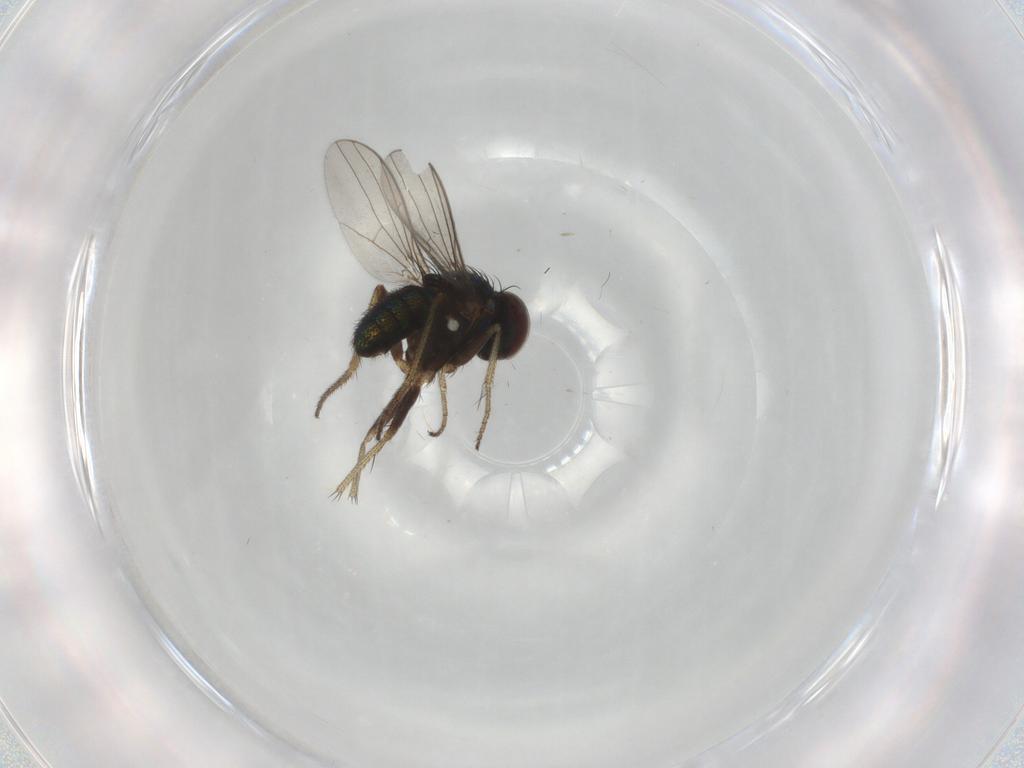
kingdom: Animalia
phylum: Arthropoda
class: Insecta
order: Diptera
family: Dolichopodidae
